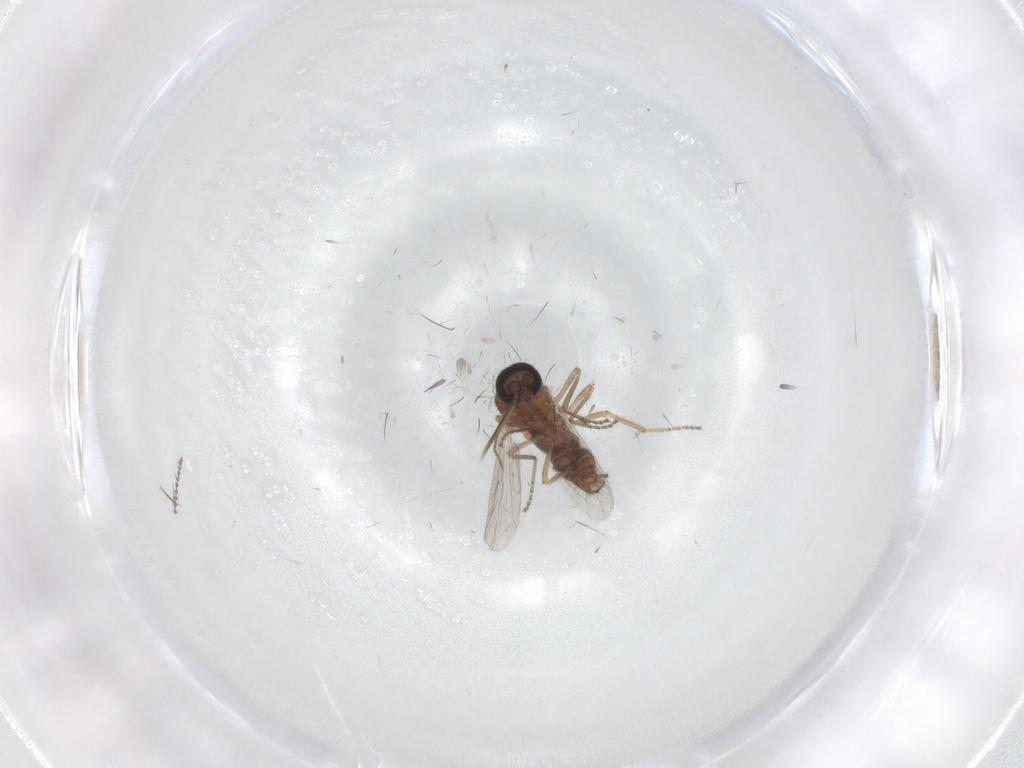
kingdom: Animalia
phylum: Arthropoda
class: Insecta
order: Diptera
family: Ceratopogonidae
